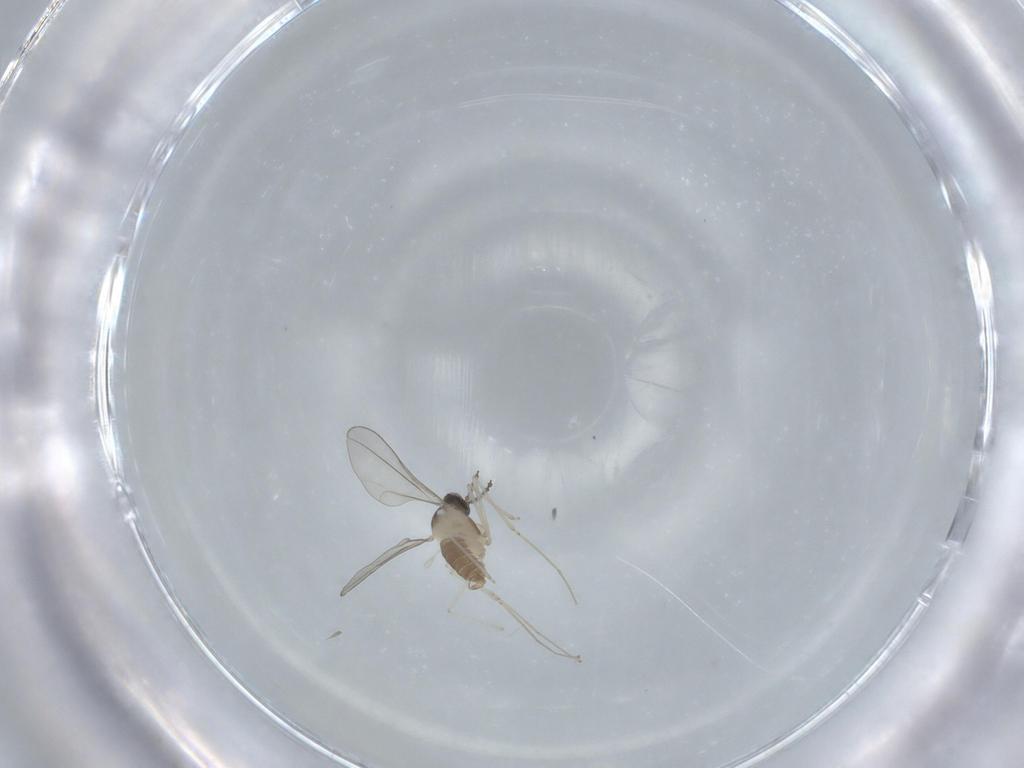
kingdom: Animalia
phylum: Arthropoda
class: Insecta
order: Diptera
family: Cecidomyiidae
